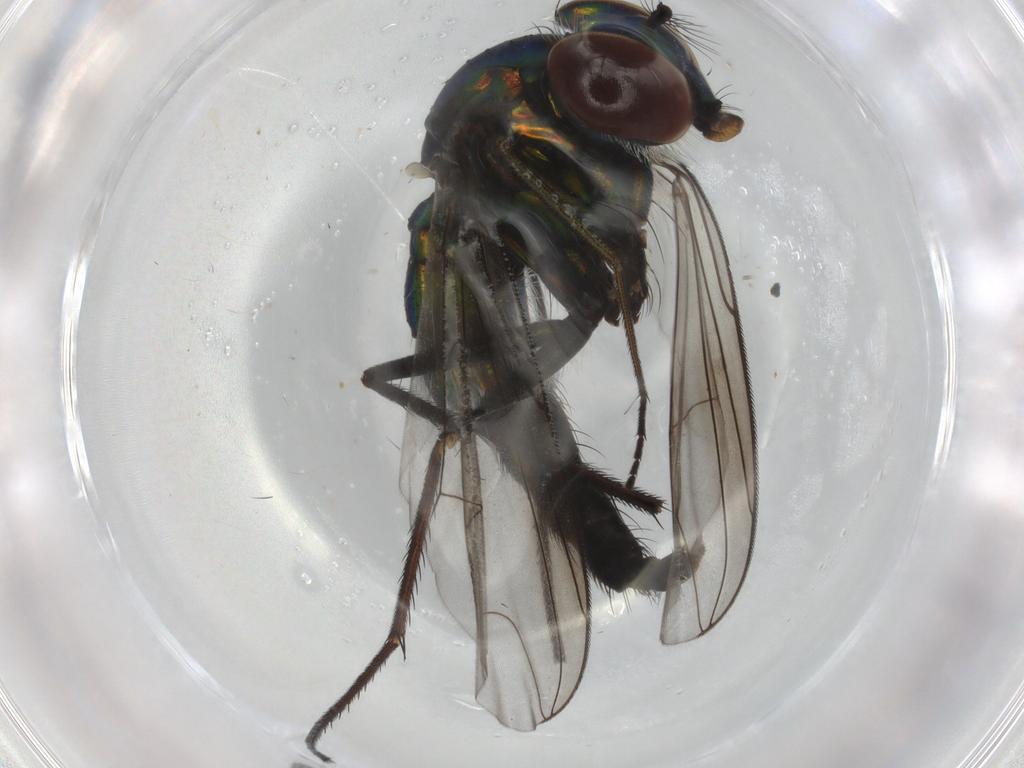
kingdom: Animalia
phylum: Arthropoda
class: Insecta
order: Diptera
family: Dolichopodidae
